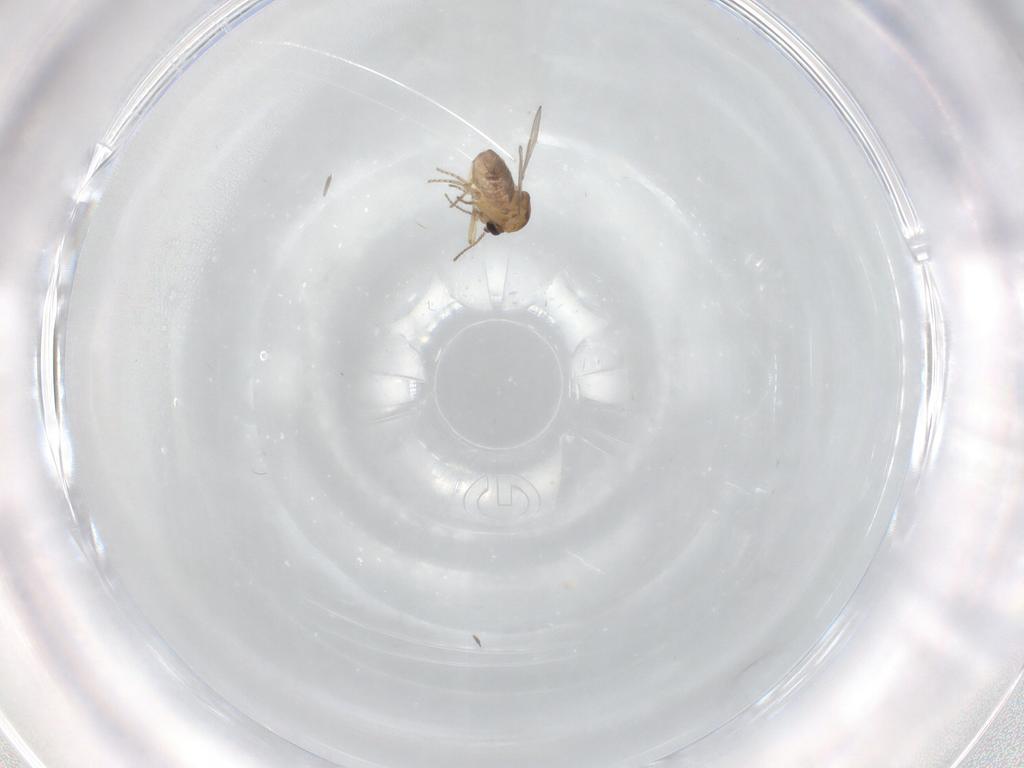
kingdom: Animalia
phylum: Arthropoda
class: Insecta
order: Diptera
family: Ceratopogonidae
